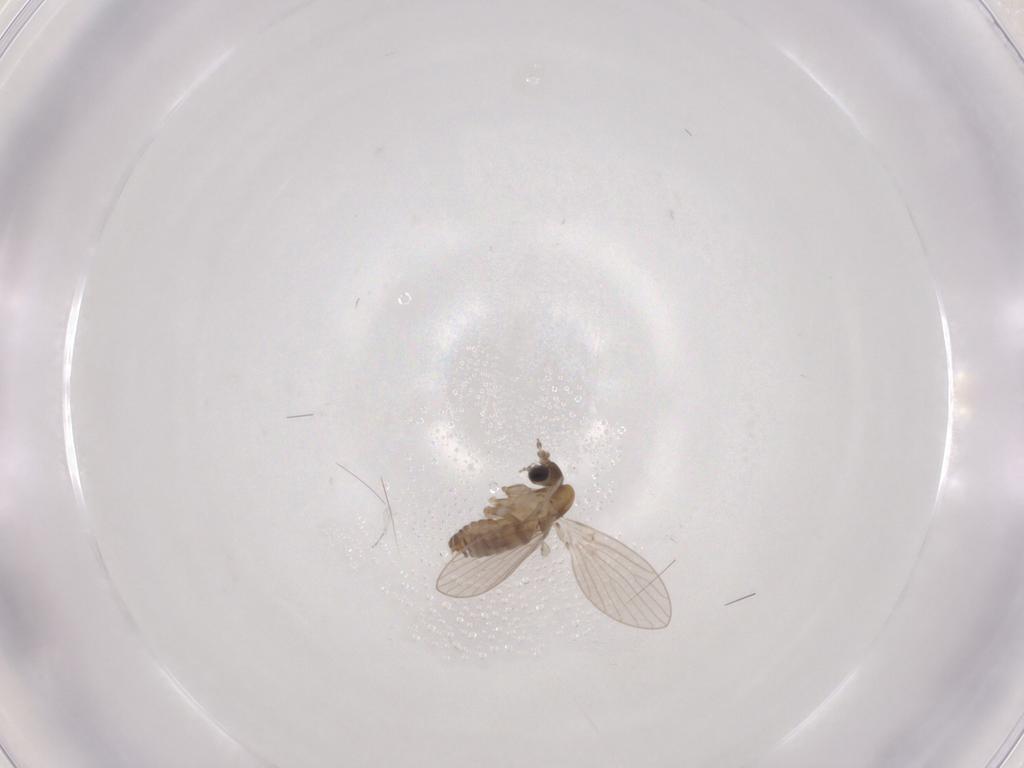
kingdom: Animalia
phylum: Arthropoda
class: Insecta
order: Diptera
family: Psychodidae
